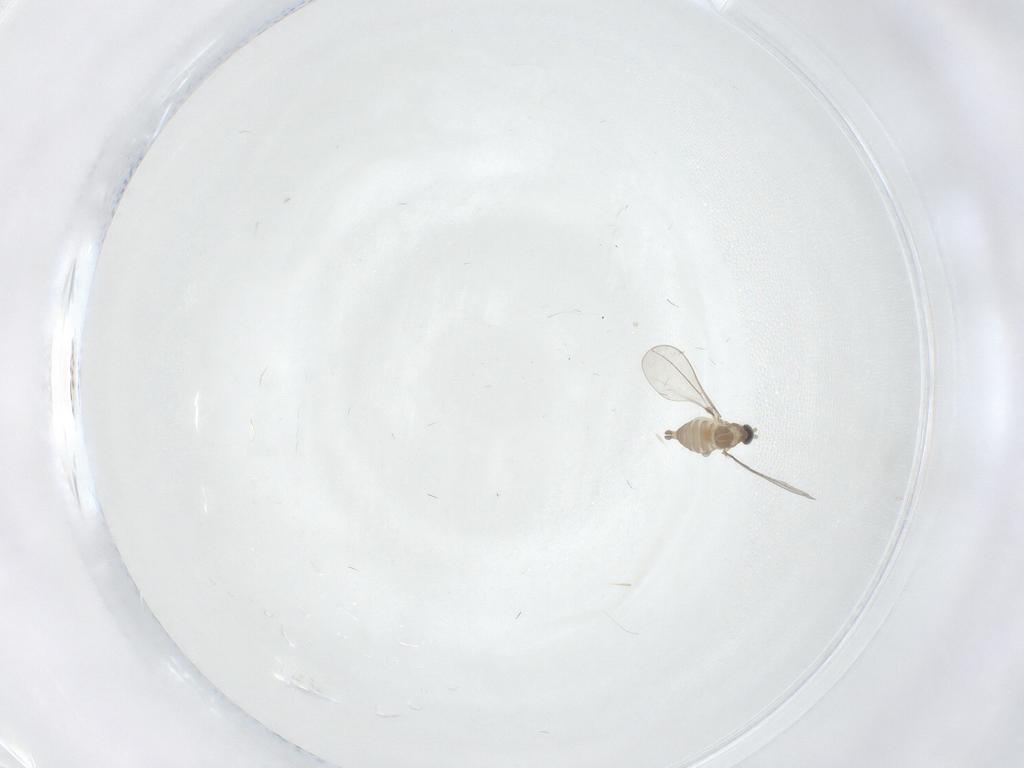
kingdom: Animalia
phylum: Arthropoda
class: Insecta
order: Diptera
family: Cecidomyiidae
